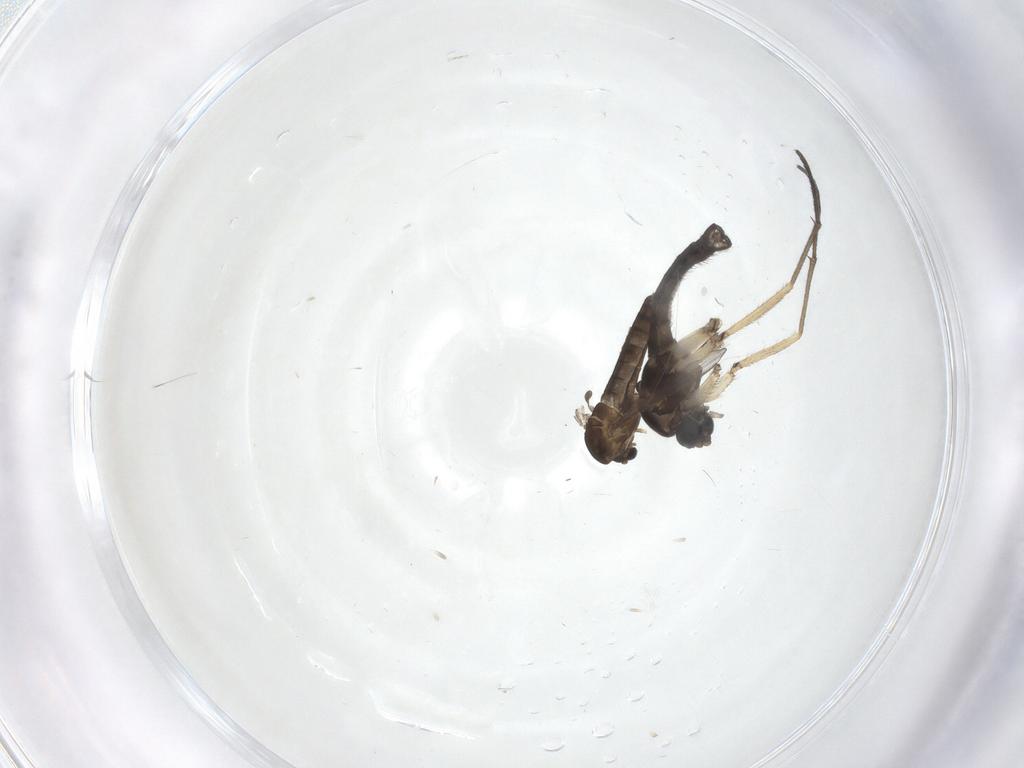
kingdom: Animalia
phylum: Arthropoda
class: Insecta
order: Diptera
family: Chironomidae
